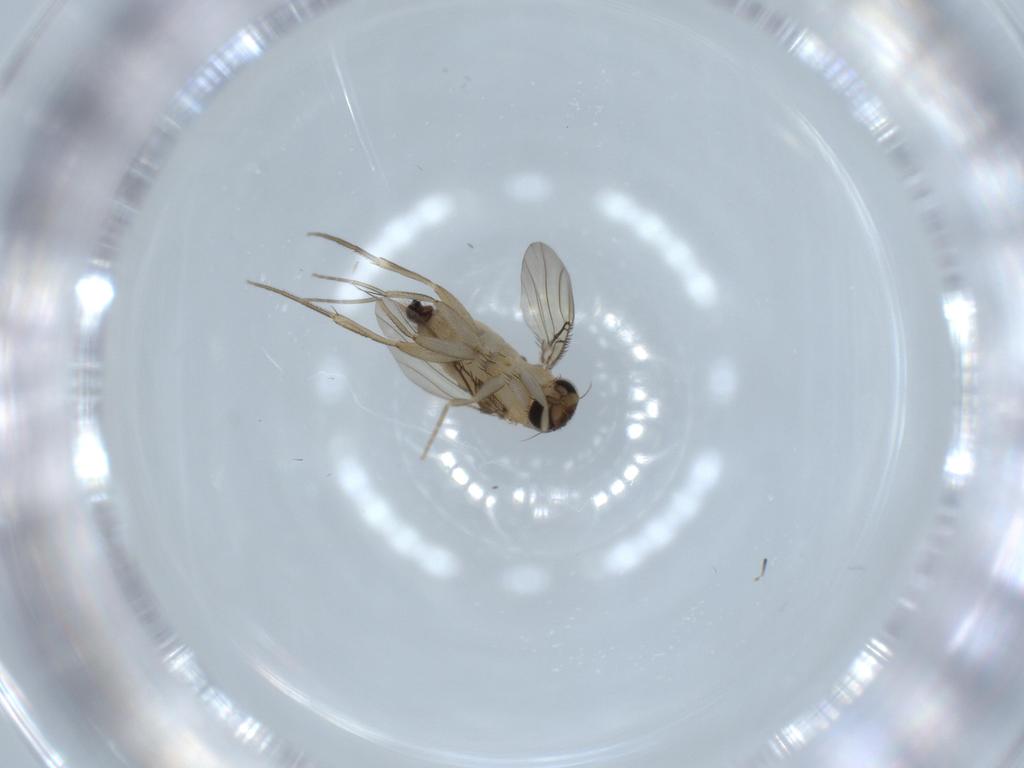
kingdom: Animalia
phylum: Arthropoda
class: Insecta
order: Diptera
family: Phoridae
